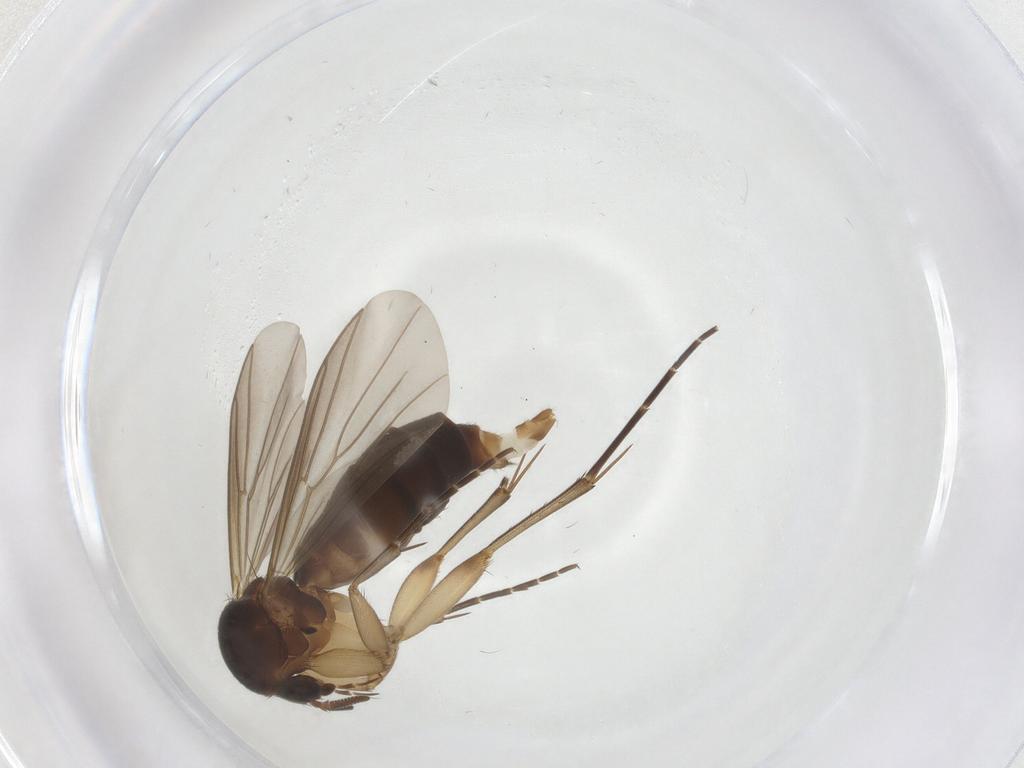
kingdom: Animalia
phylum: Arthropoda
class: Insecta
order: Diptera
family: Mycetophilidae
